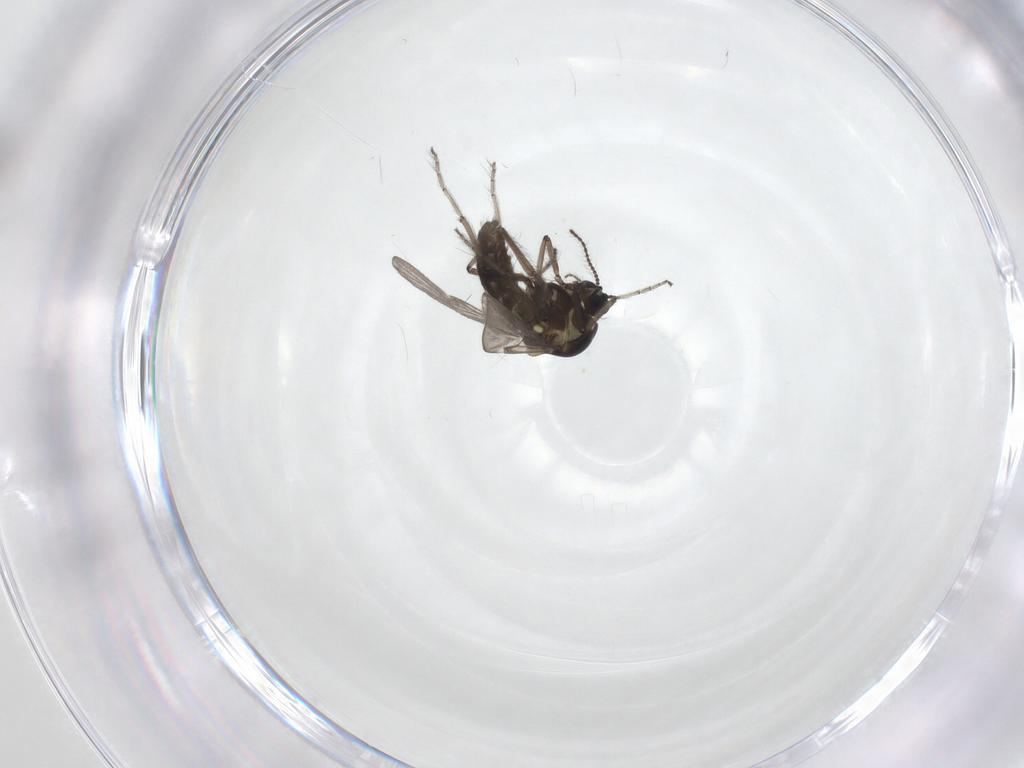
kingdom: Animalia
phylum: Arthropoda
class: Insecta
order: Diptera
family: Ceratopogonidae
